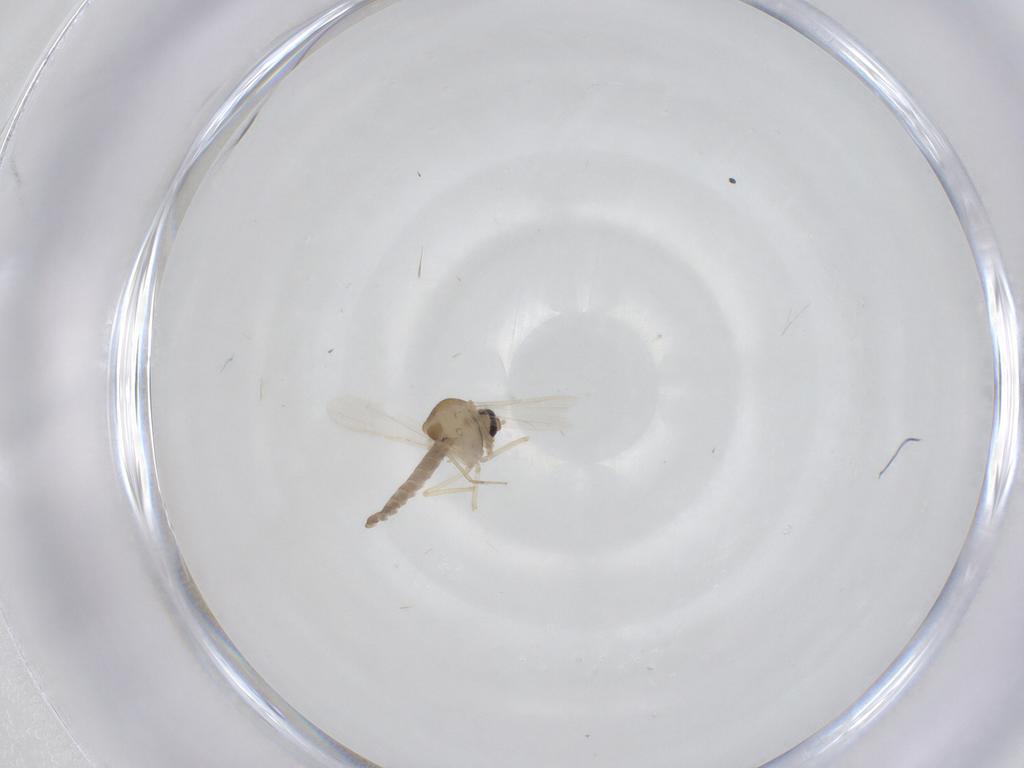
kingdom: Animalia
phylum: Arthropoda
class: Insecta
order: Diptera
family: Ceratopogonidae
